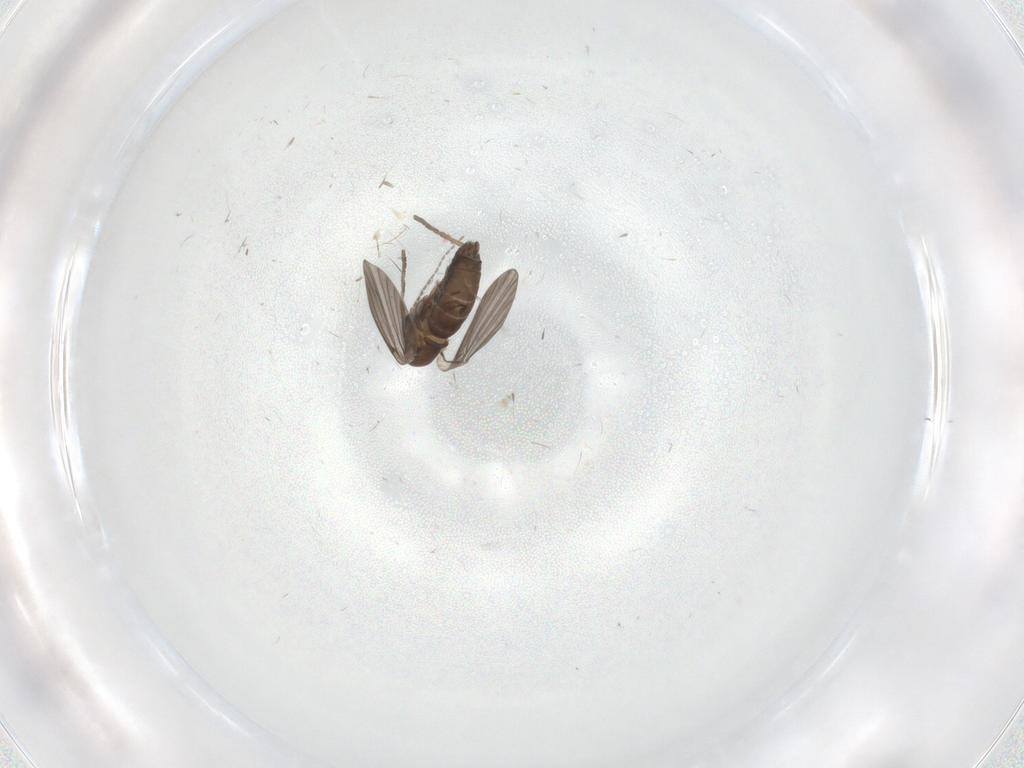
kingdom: Animalia
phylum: Arthropoda
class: Insecta
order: Diptera
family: Cecidomyiidae
